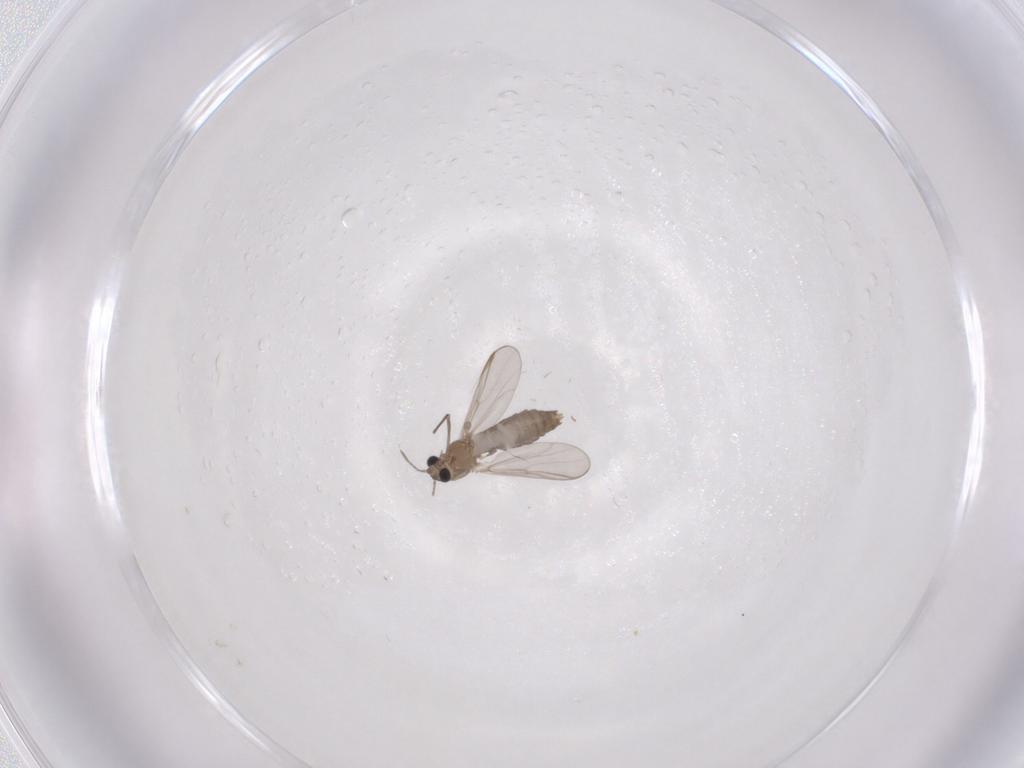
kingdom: Animalia
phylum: Arthropoda
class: Insecta
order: Diptera
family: Chironomidae
